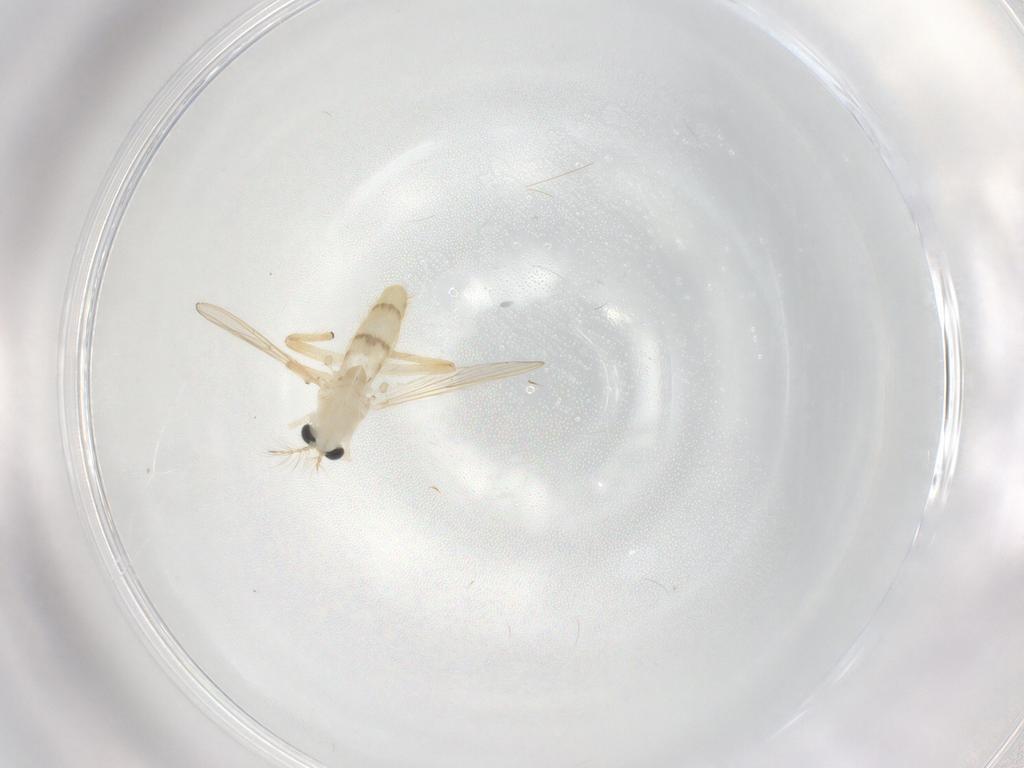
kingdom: Animalia
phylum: Arthropoda
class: Insecta
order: Diptera
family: Chironomidae
